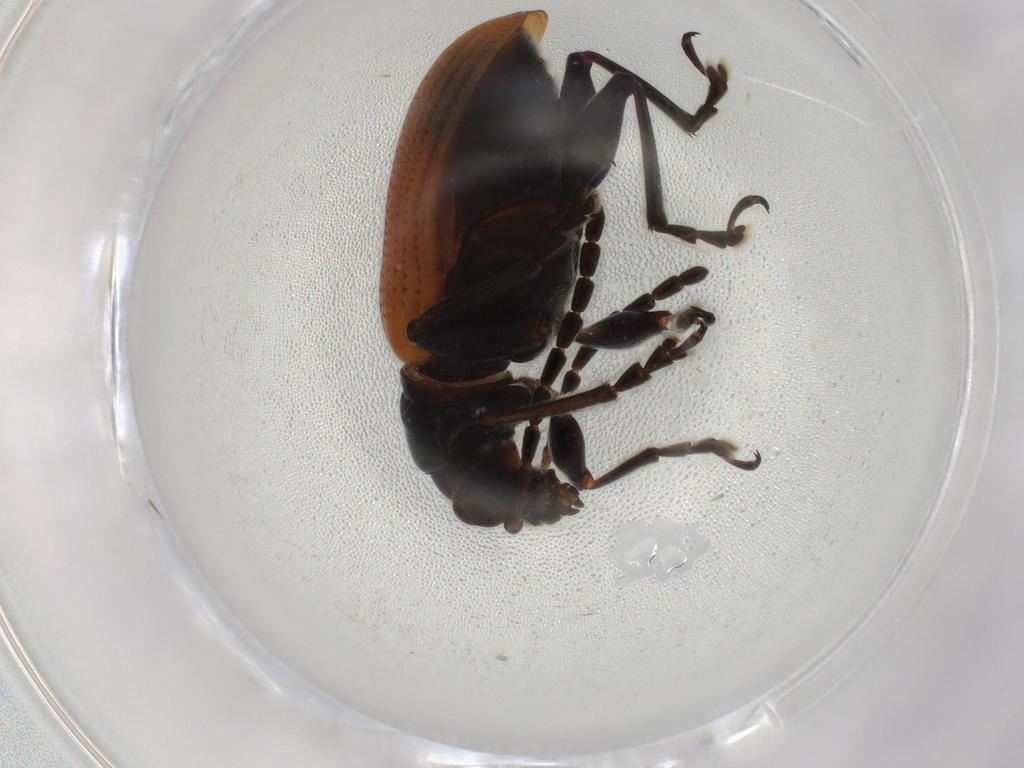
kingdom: Animalia
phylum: Arthropoda
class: Insecta
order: Coleoptera
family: Chrysomelidae
